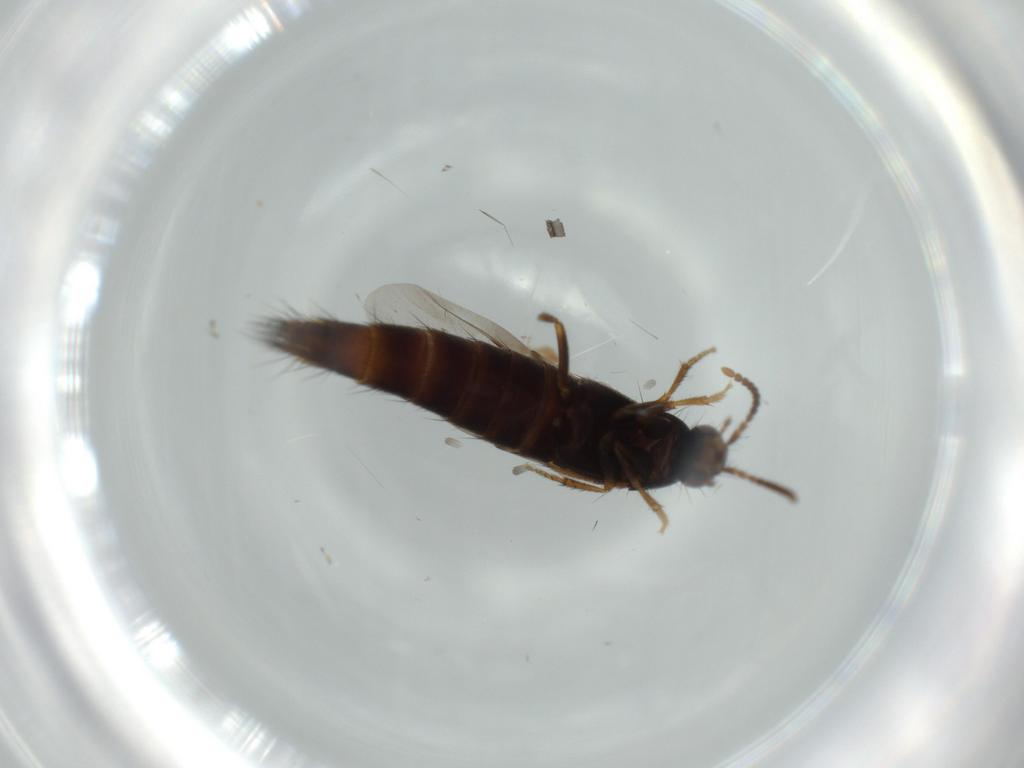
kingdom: Animalia
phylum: Arthropoda
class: Insecta
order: Coleoptera
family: Staphylinidae
